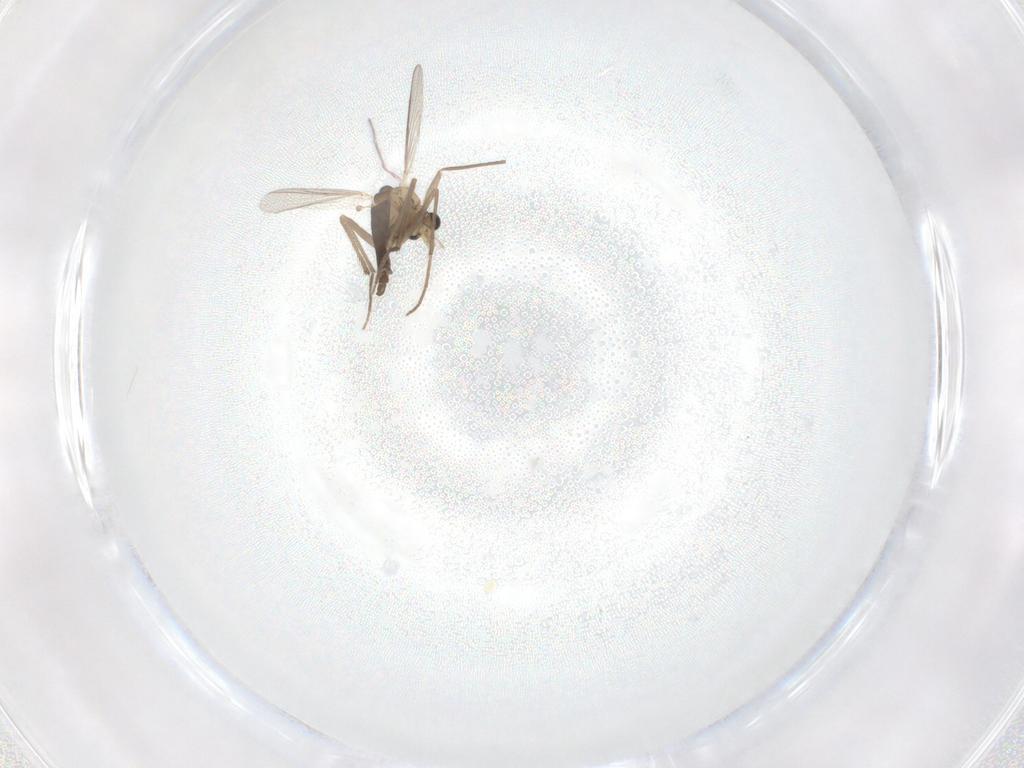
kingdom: Animalia
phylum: Arthropoda
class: Insecta
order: Diptera
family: Chironomidae
